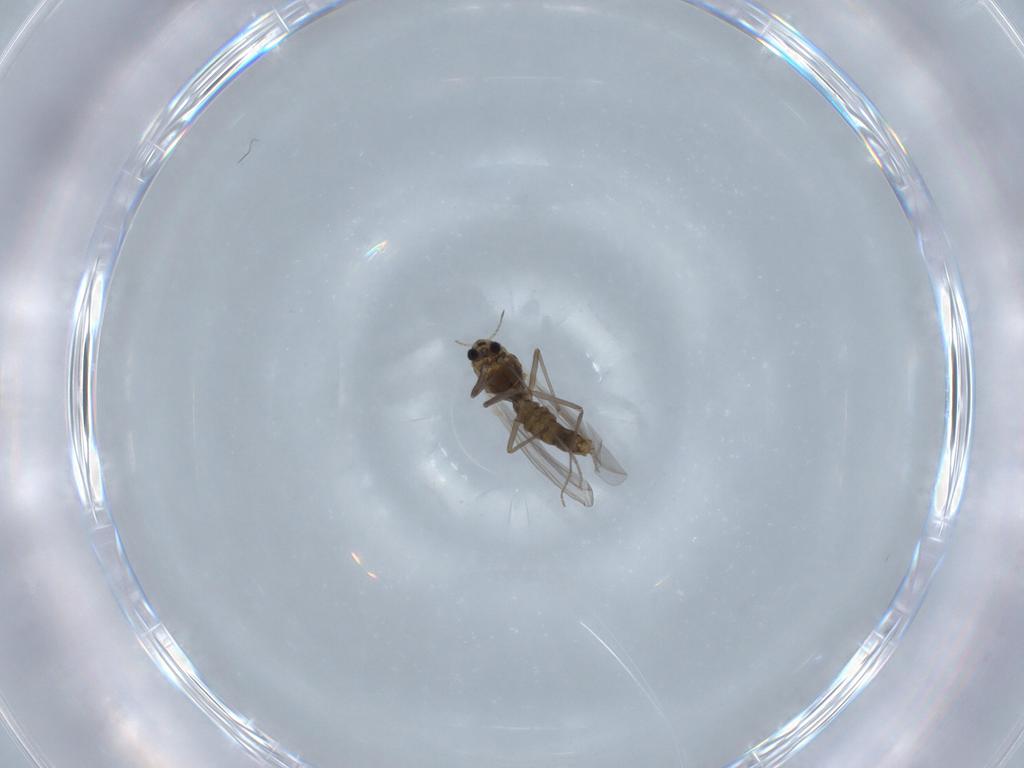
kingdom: Animalia
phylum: Arthropoda
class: Insecta
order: Diptera
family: Chironomidae
